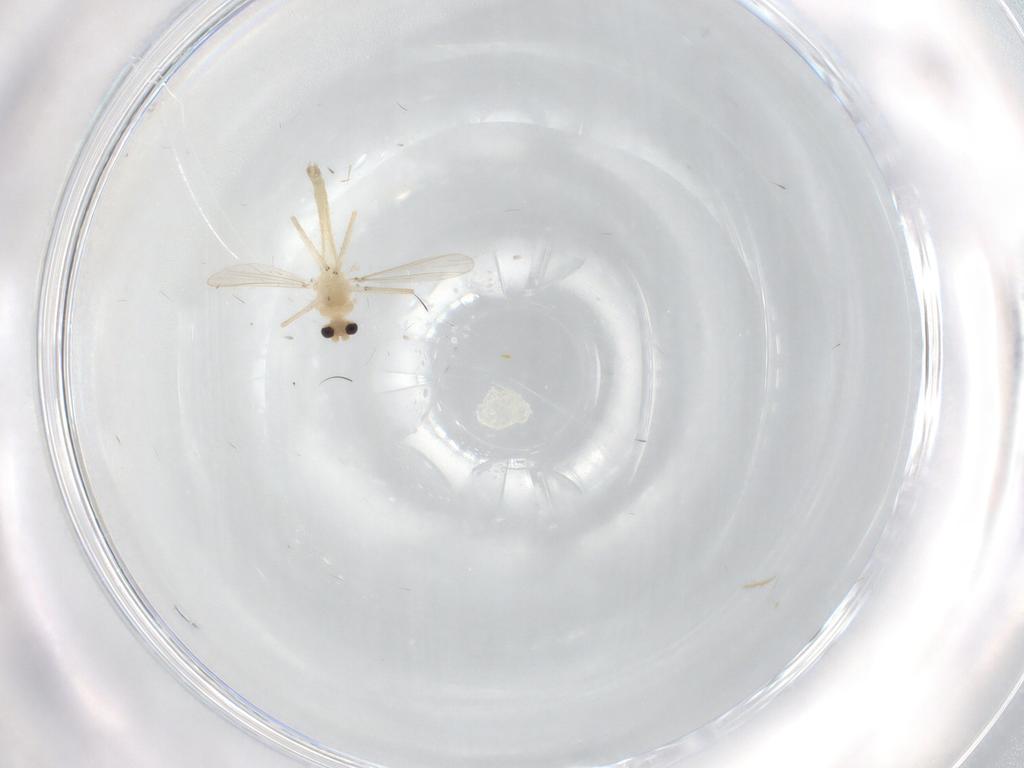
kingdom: Animalia
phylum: Arthropoda
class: Insecta
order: Diptera
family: Chironomidae
